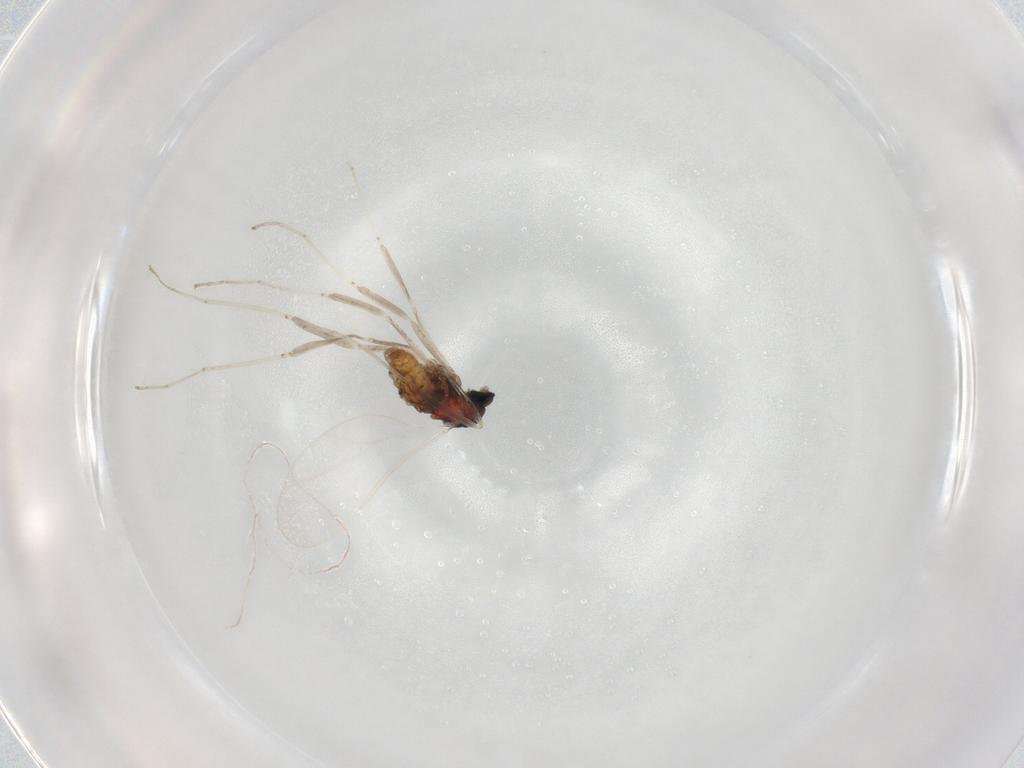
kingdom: Animalia
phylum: Arthropoda
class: Insecta
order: Diptera
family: Cecidomyiidae
